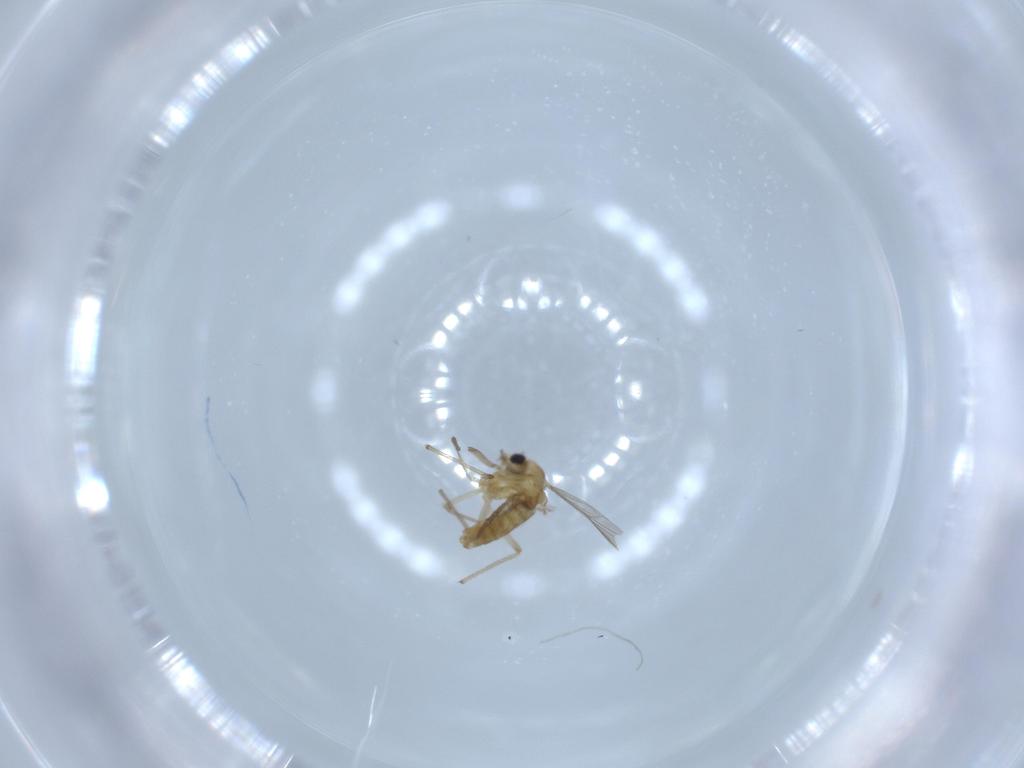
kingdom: Animalia
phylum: Arthropoda
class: Insecta
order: Diptera
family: Chironomidae
